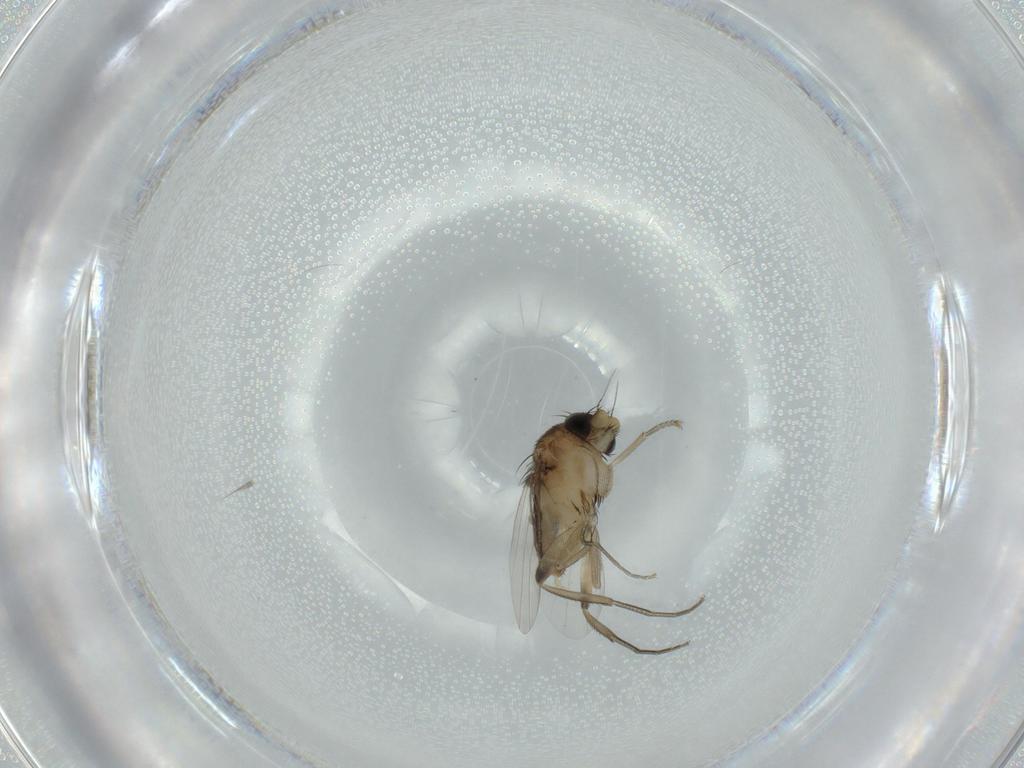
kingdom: Animalia
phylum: Arthropoda
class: Insecta
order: Diptera
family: Phoridae
